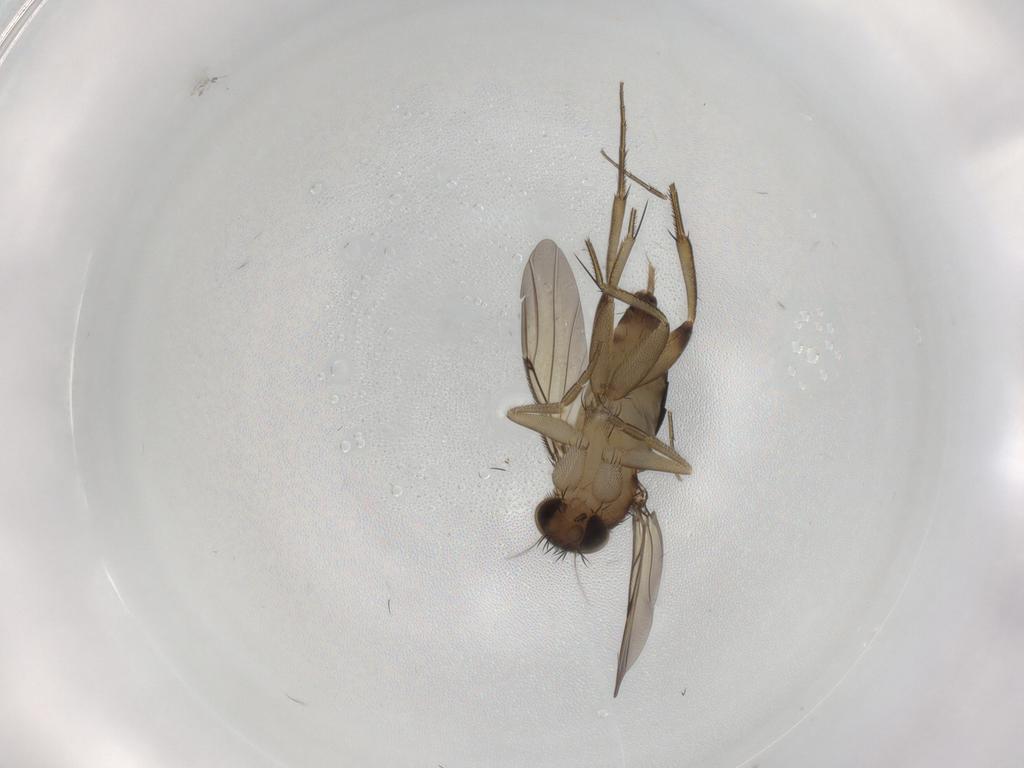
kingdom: Animalia
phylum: Arthropoda
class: Insecta
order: Diptera
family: Phoridae
